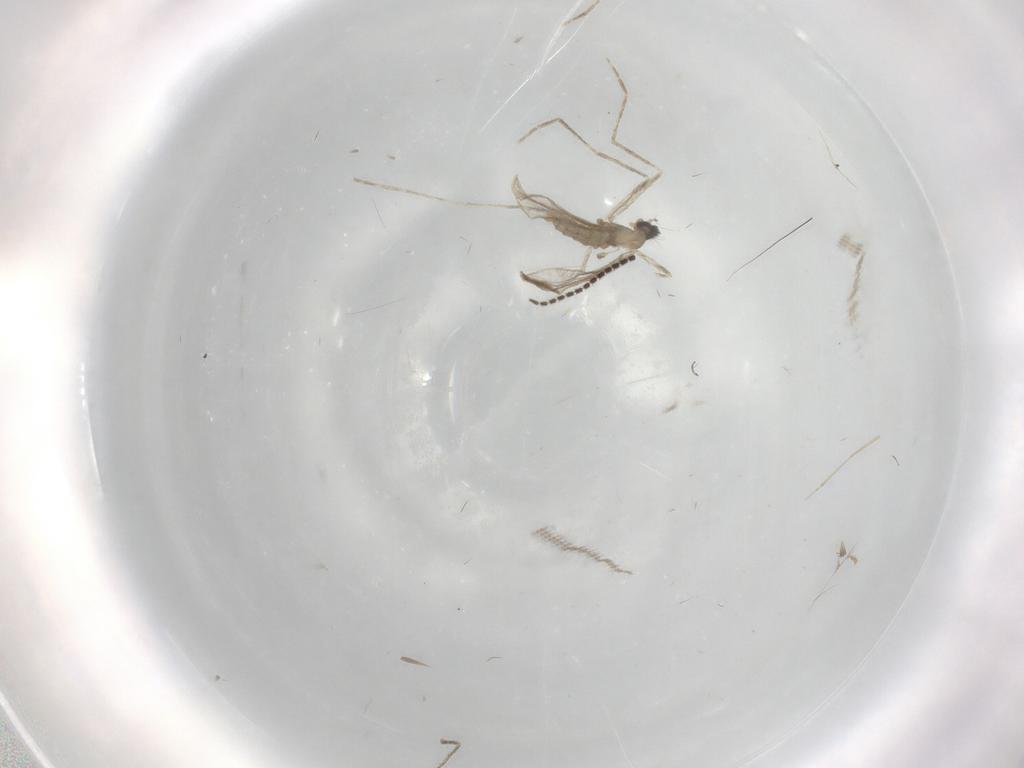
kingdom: Animalia
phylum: Arthropoda
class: Insecta
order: Diptera
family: Cecidomyiidae
